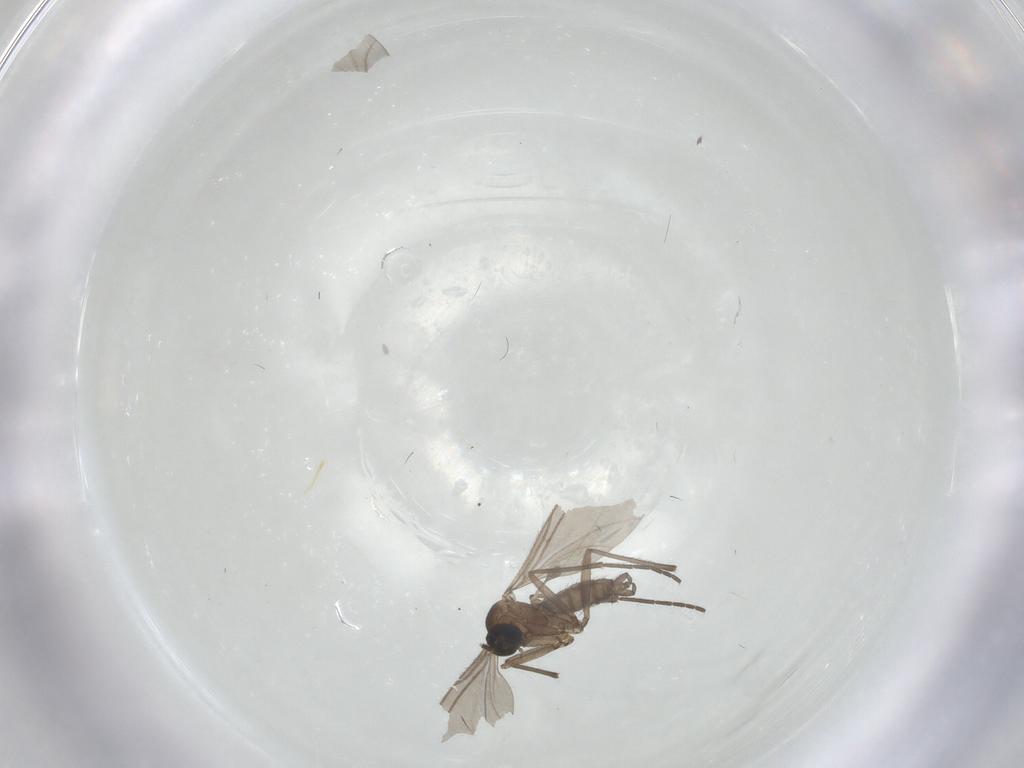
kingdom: Animalia
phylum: Arthropoda
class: Insecta
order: Diptera
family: Sciaridae
